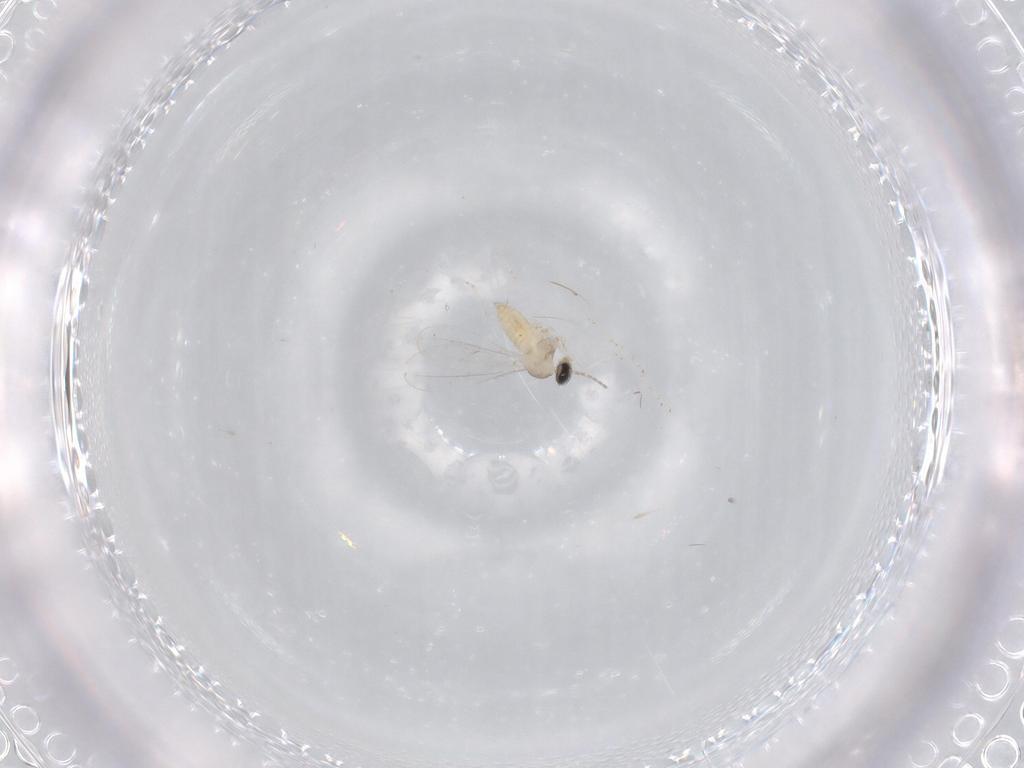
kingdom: Animalia
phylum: Arthropoda
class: Insecta
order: Diptera
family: Cecidomyiidae
